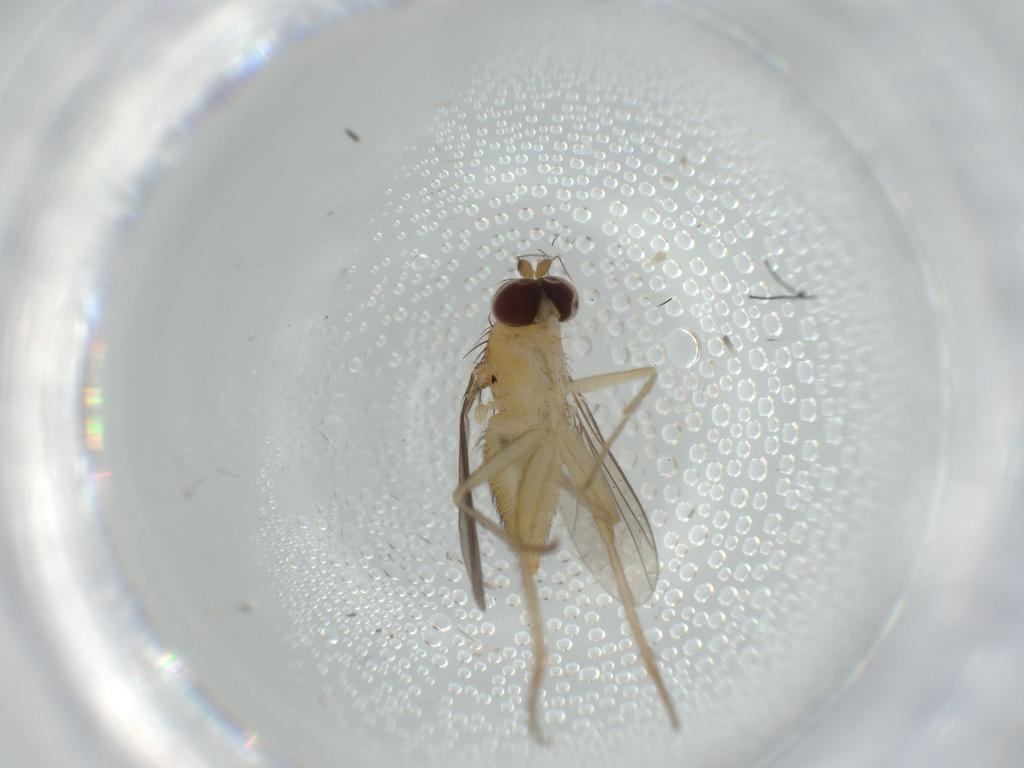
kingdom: Animalia
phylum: Arthropoda
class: Insecta
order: Diptera
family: Dolichopodidae
